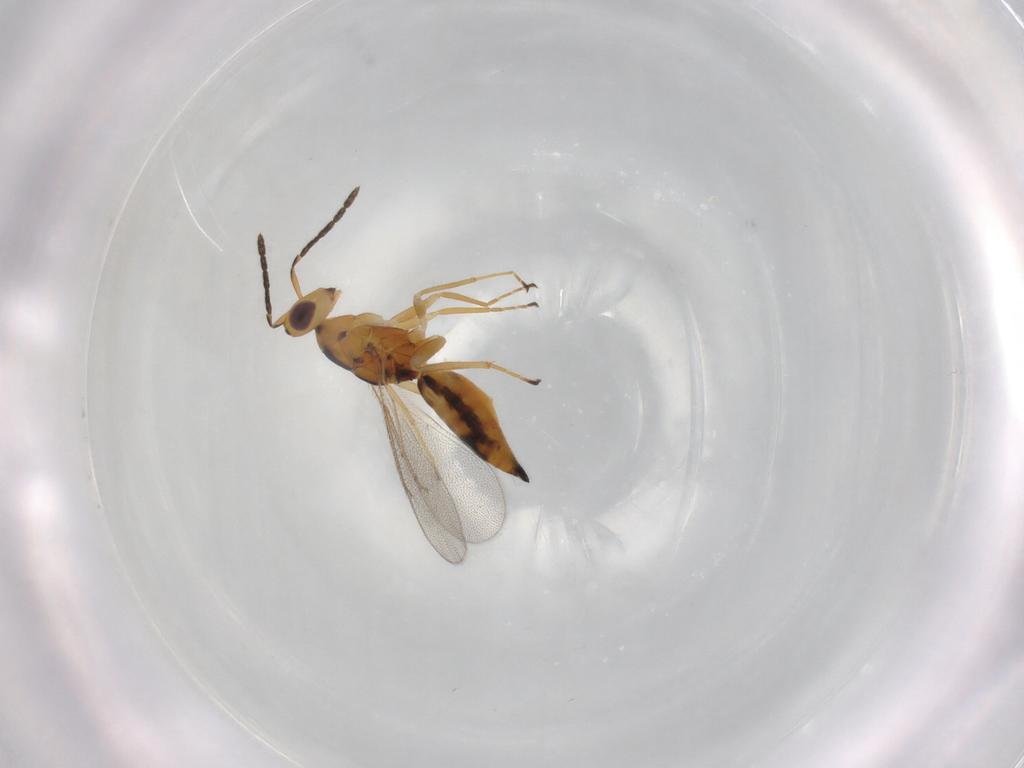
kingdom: Animalia
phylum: Arthropoda
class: Insecta
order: Hymenoptera
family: Eulophidae
